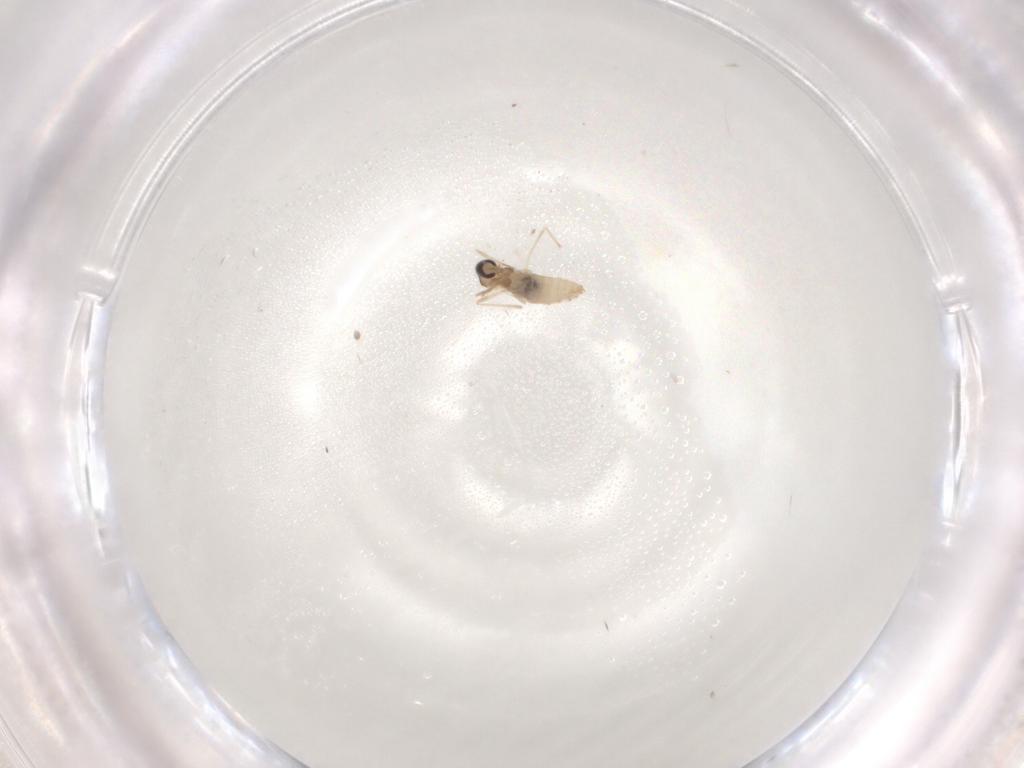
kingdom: Animalia
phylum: Arthropoda
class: Insecta
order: Diptera
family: Cecidomyiidae
